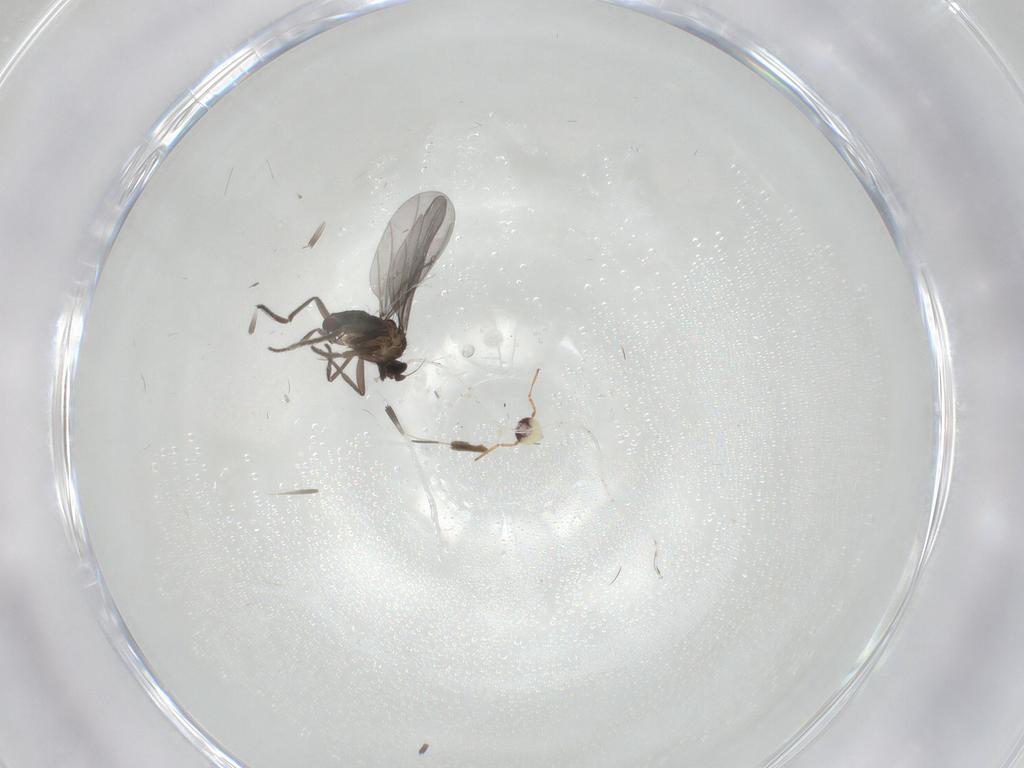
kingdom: Animalia
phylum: Arthropoda
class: Insecta
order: Diptera
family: Phoridae
